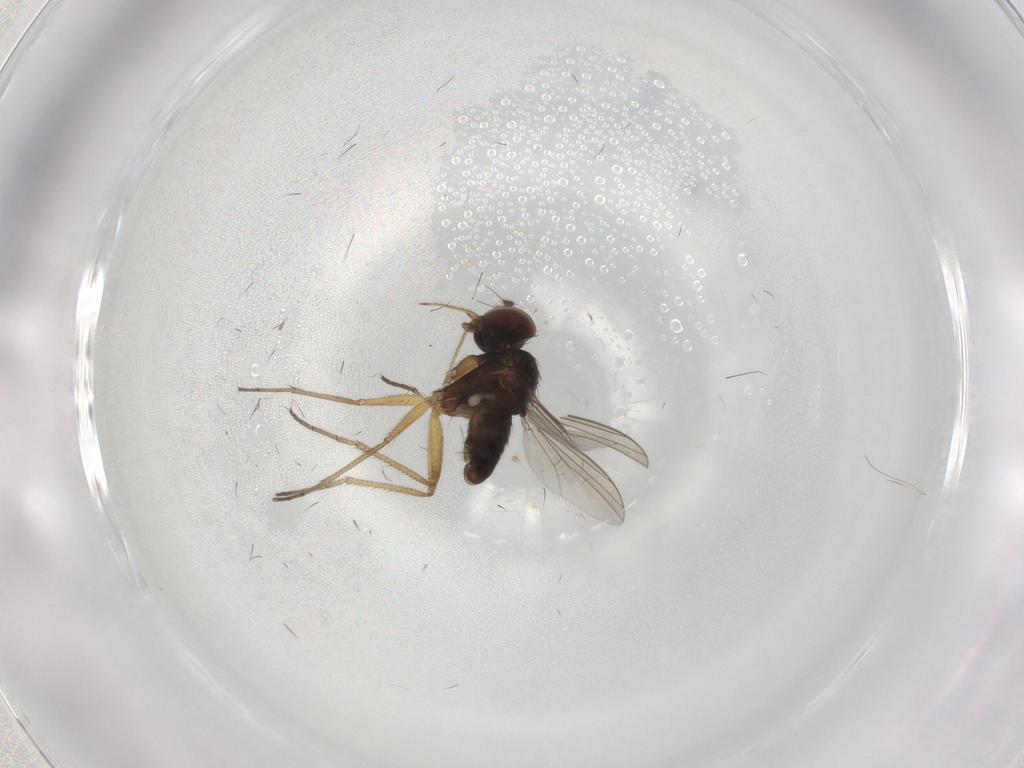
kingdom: Animalia
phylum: Arthropoda
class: Insecta
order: Diptera
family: Dolichopodidae
